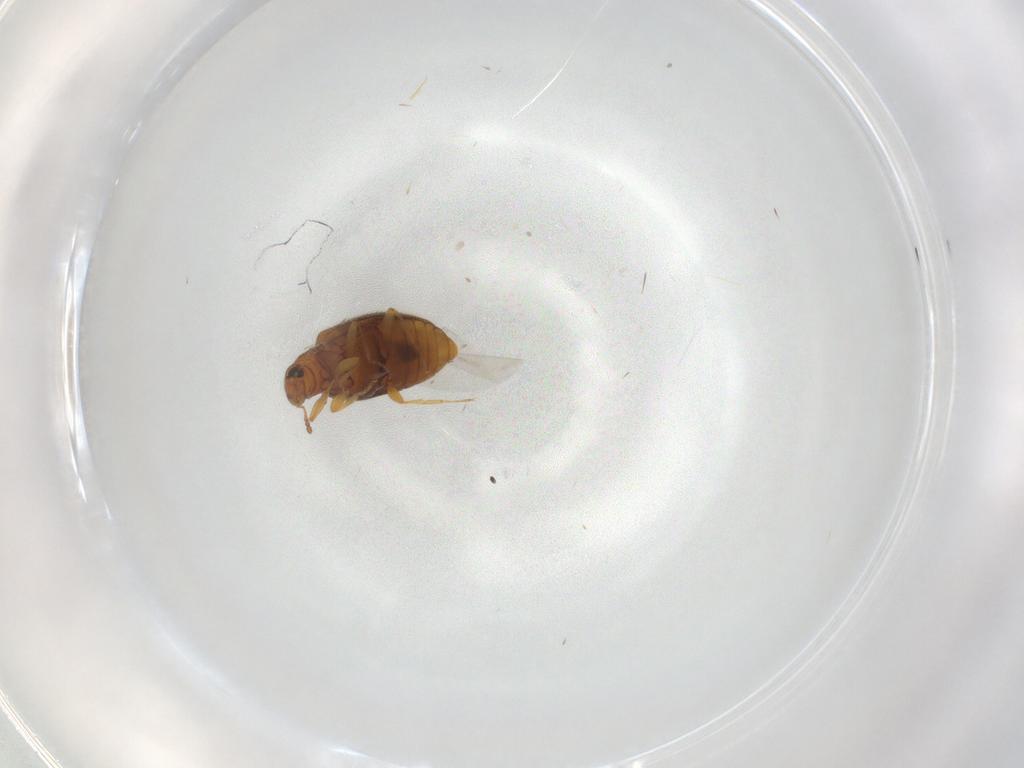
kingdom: Animalia
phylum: Arthropoda
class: Insecta
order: Coleoptera
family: Latridiidae
